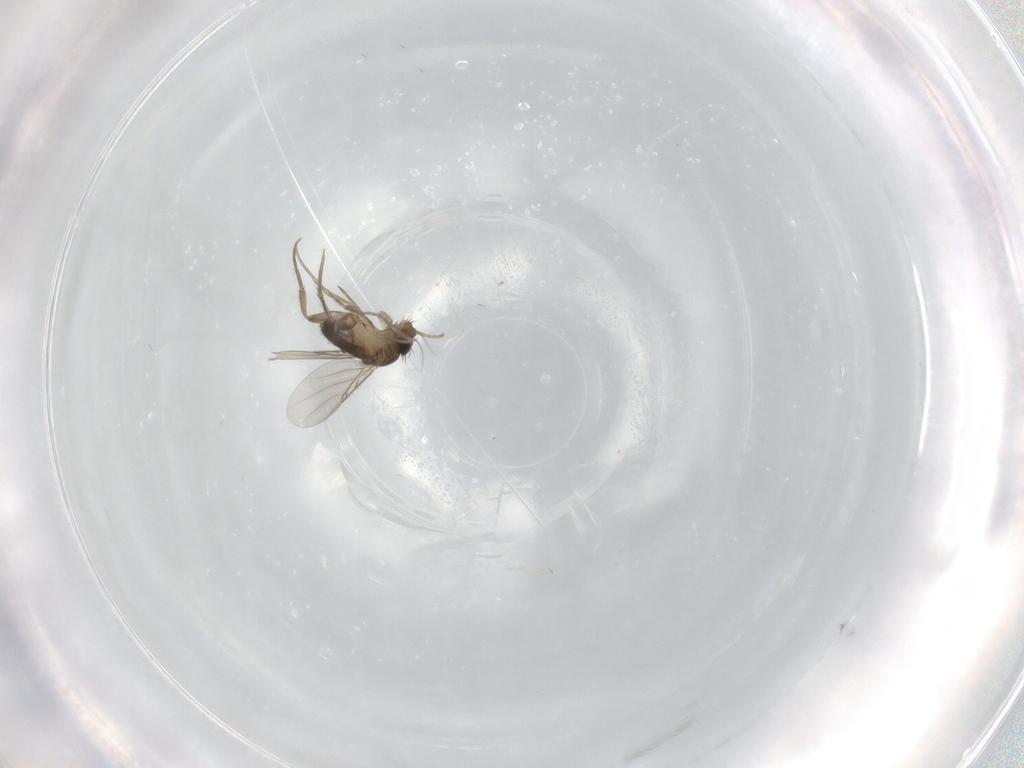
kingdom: Animalia
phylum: Arthropoda
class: Insecta
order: Diptera
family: Phoridae
